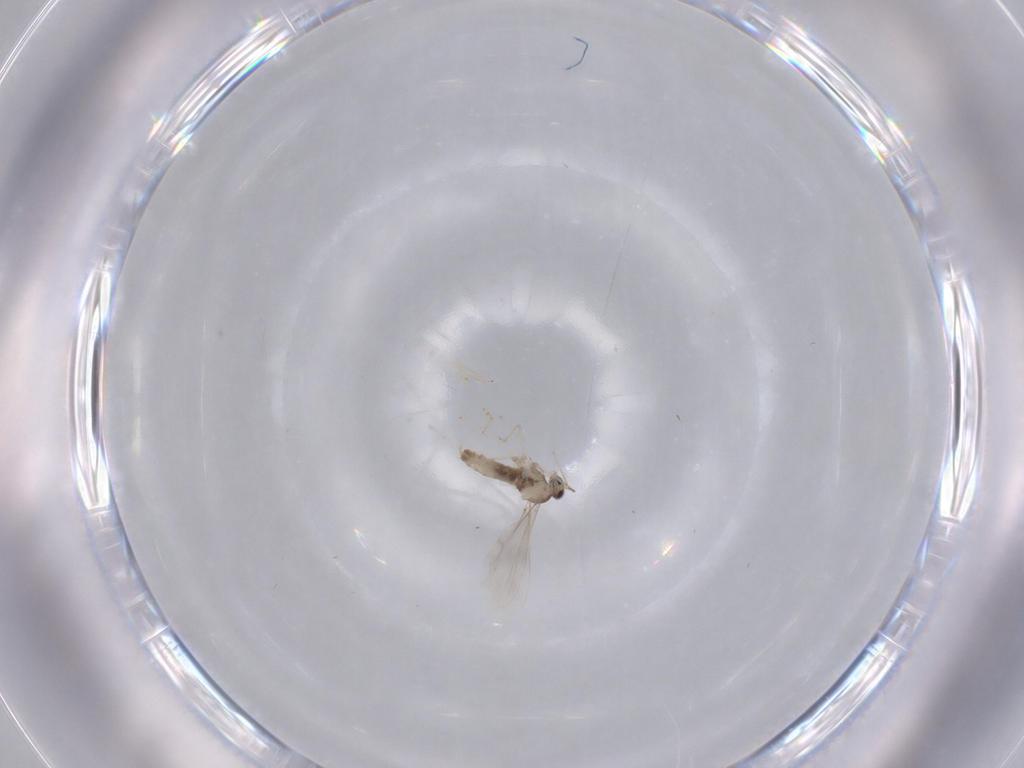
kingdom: Animalia
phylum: Arthropoda
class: Insecta
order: Diptera
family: Cecidomyiidae
